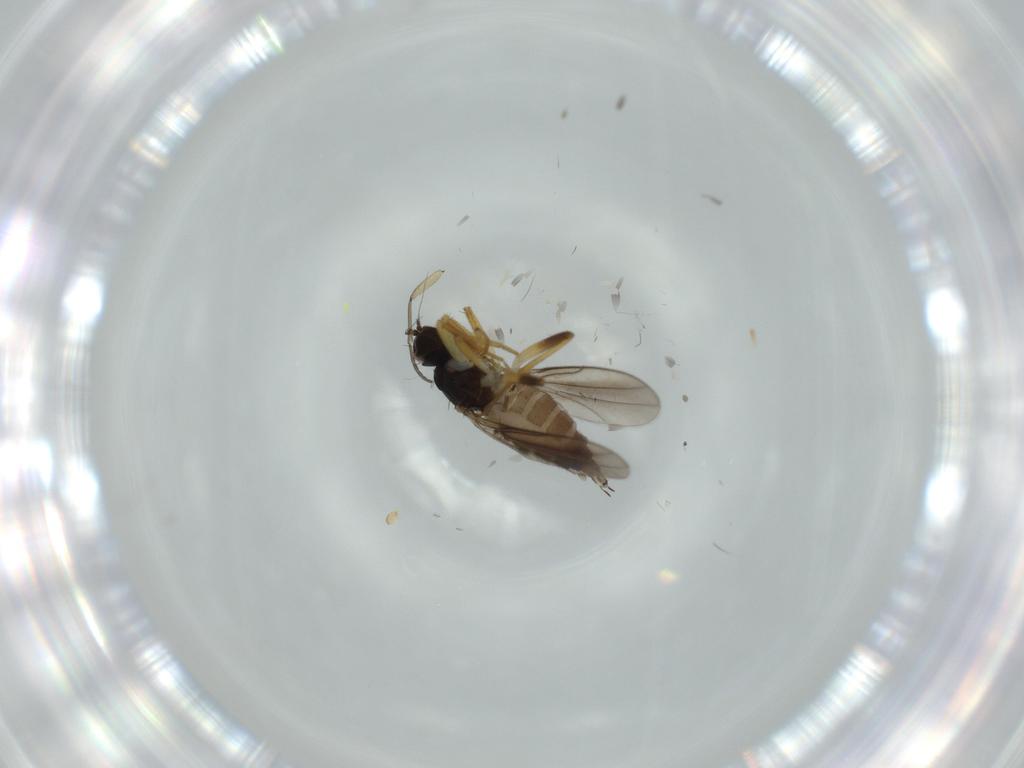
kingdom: Animalia
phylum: Arthropoda
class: Insecta
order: Diptera
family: Hybotidae
